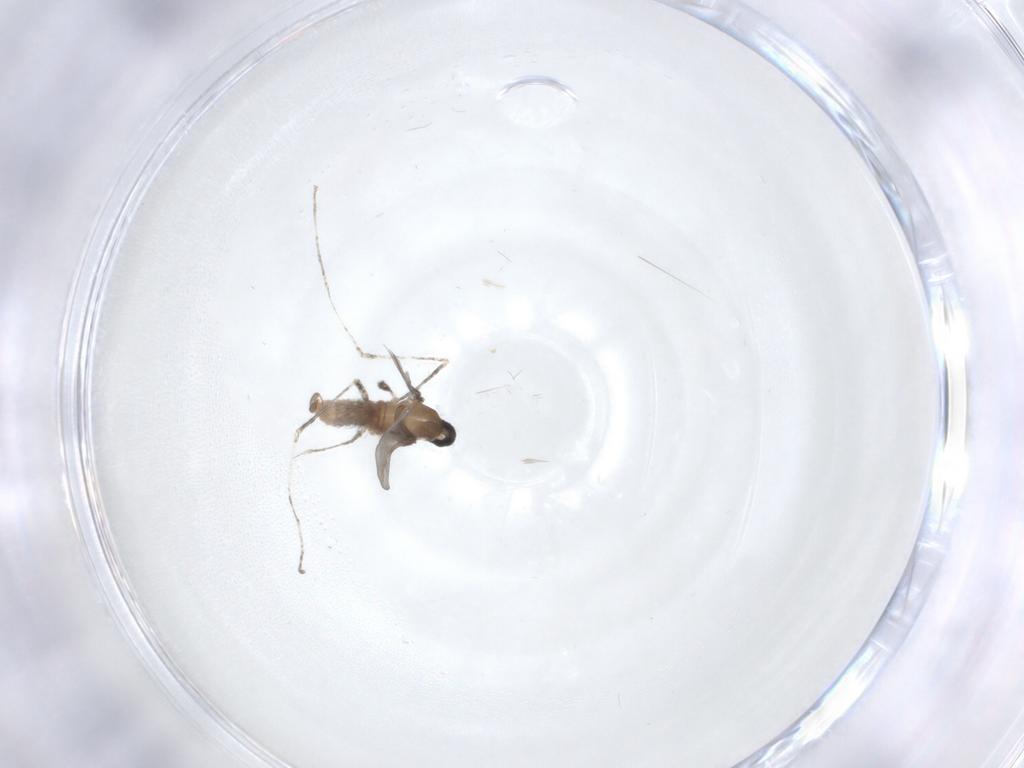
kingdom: Animalia
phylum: Arthropoda
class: Insecta
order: Diptera
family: Cecidomyiidae
